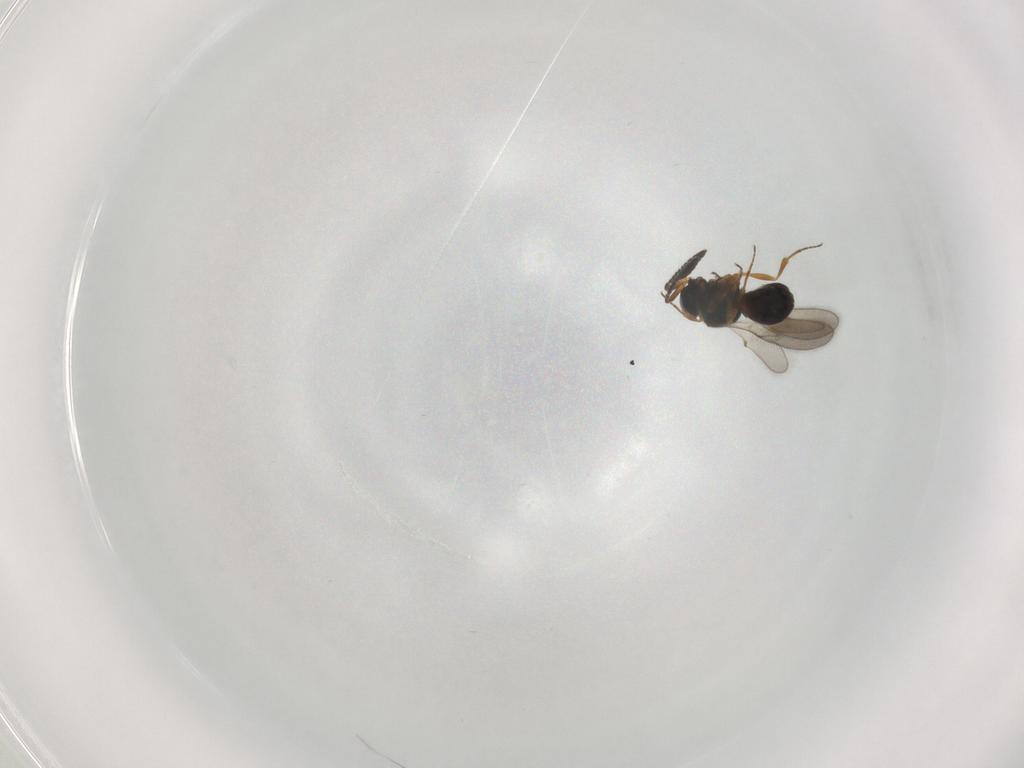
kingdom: Animalia
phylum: Arthropoda
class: Insecta
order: Hymenoptera
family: Scelionidae
